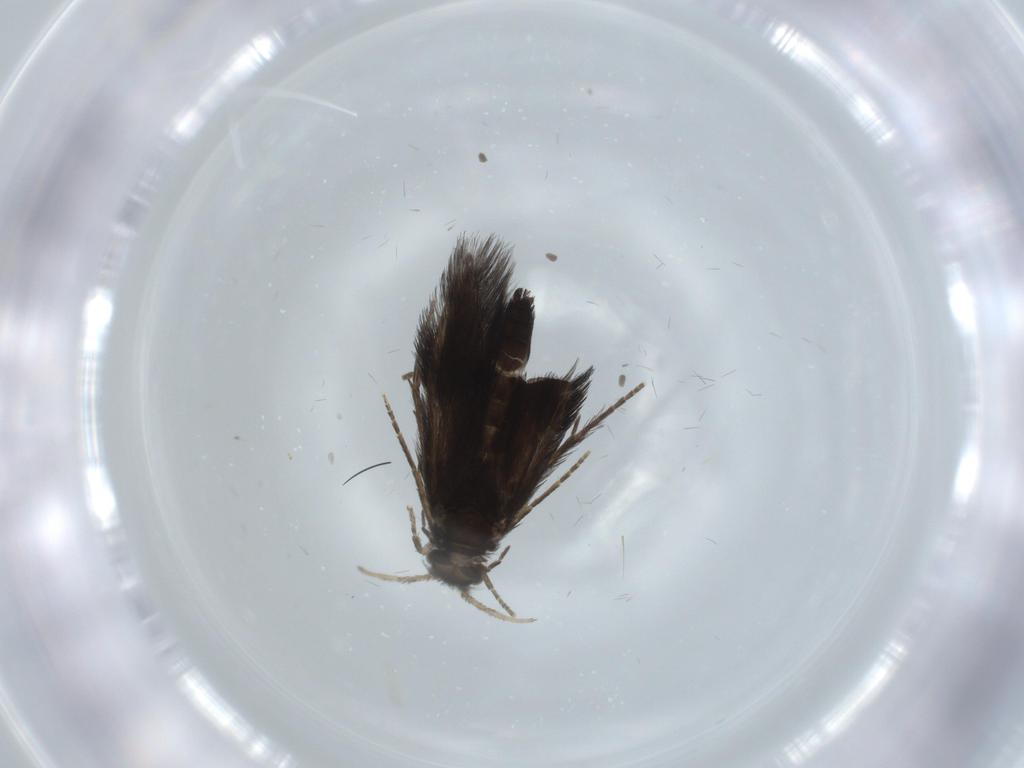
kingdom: Animalia
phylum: Arthropoda
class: Insecta
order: Trichoptera
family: Hydroptilidae
